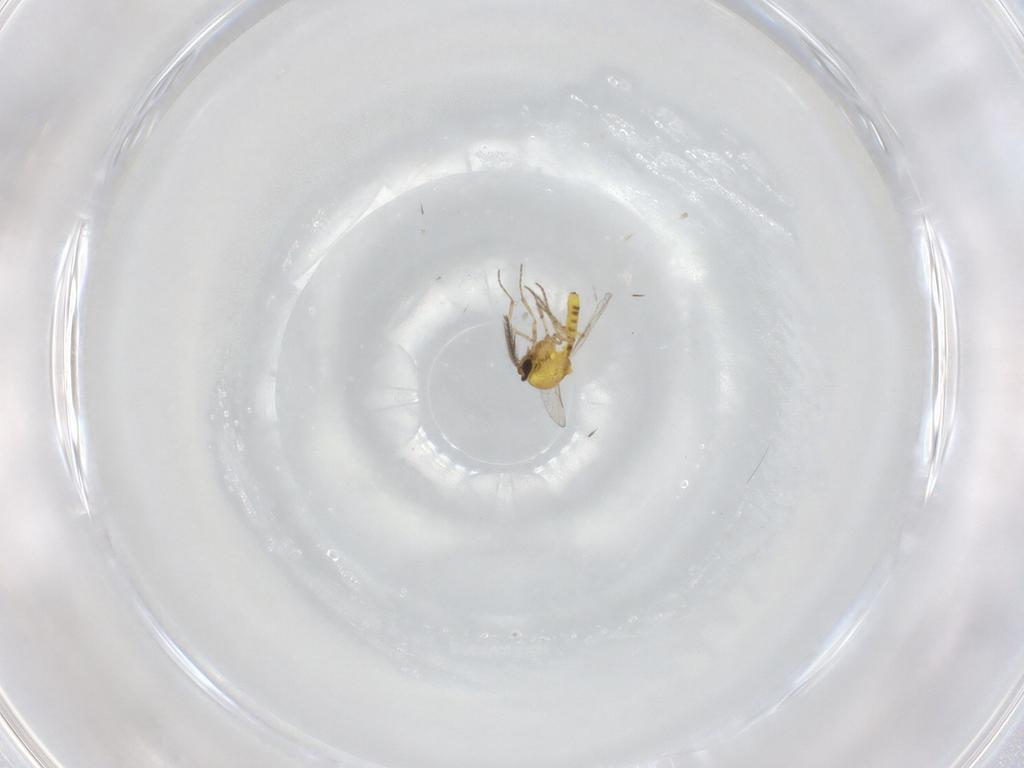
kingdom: Animalia
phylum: Arthropoda
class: Insecta
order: Diptera
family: Ceratopogonidae
